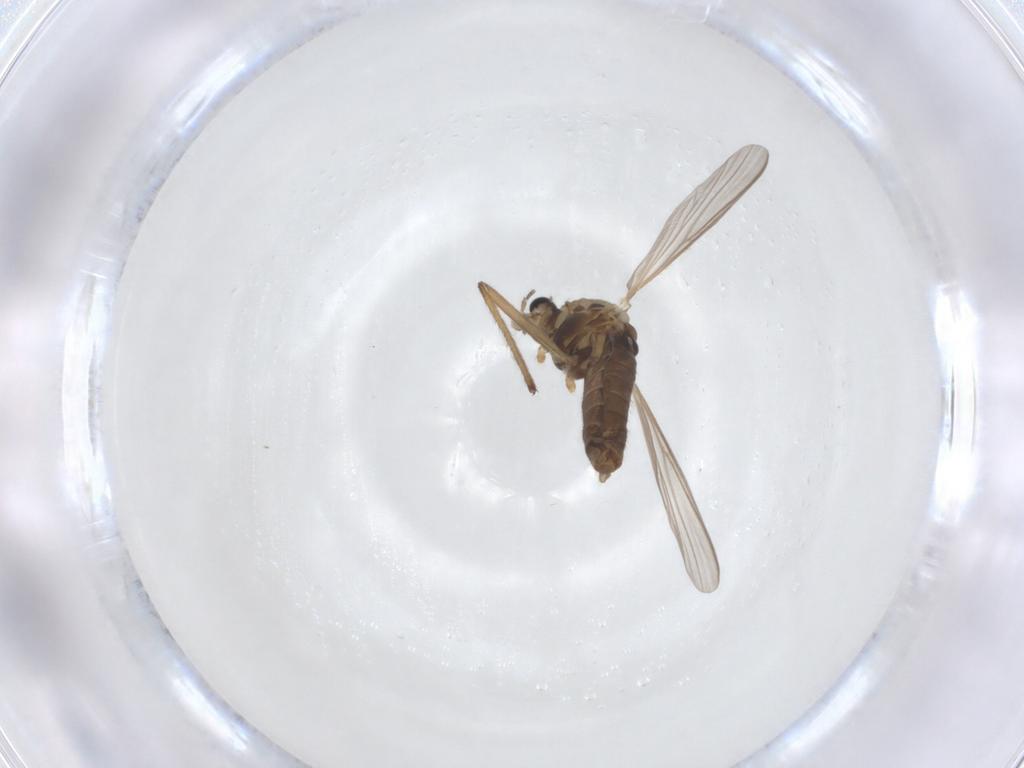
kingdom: Animalia
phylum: Arthropoda
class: Insecta
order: Diptera
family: Chironomidae
